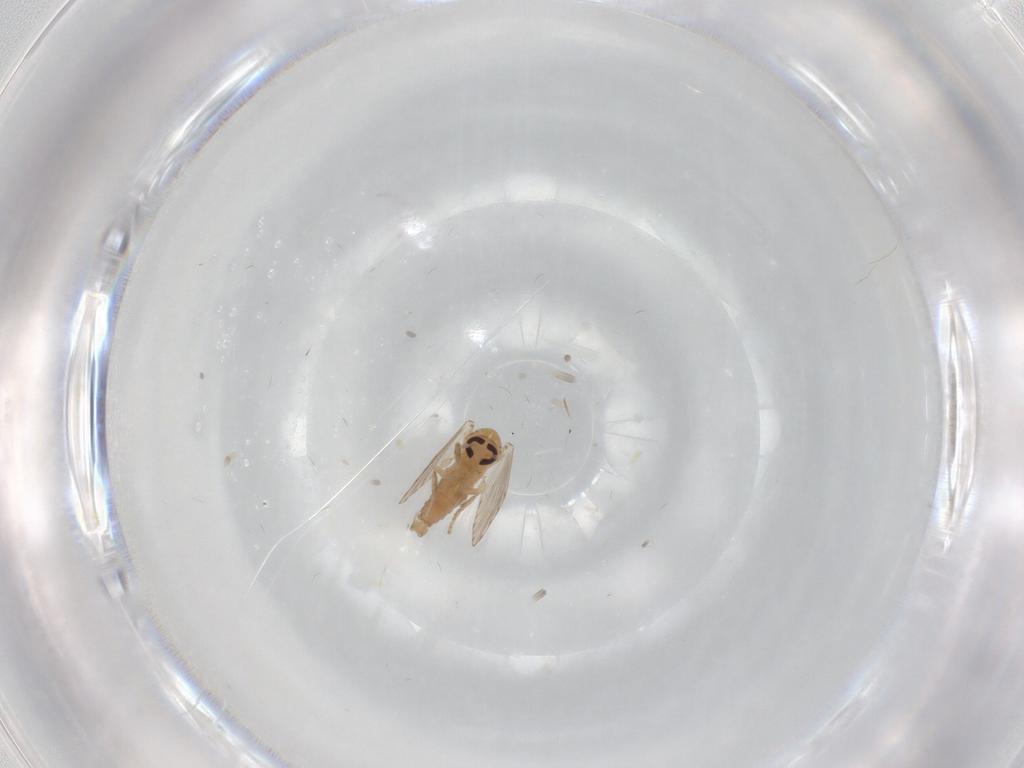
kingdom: Animalia
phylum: Arthropoda
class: Insecta
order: Diptera
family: Psychodidae
